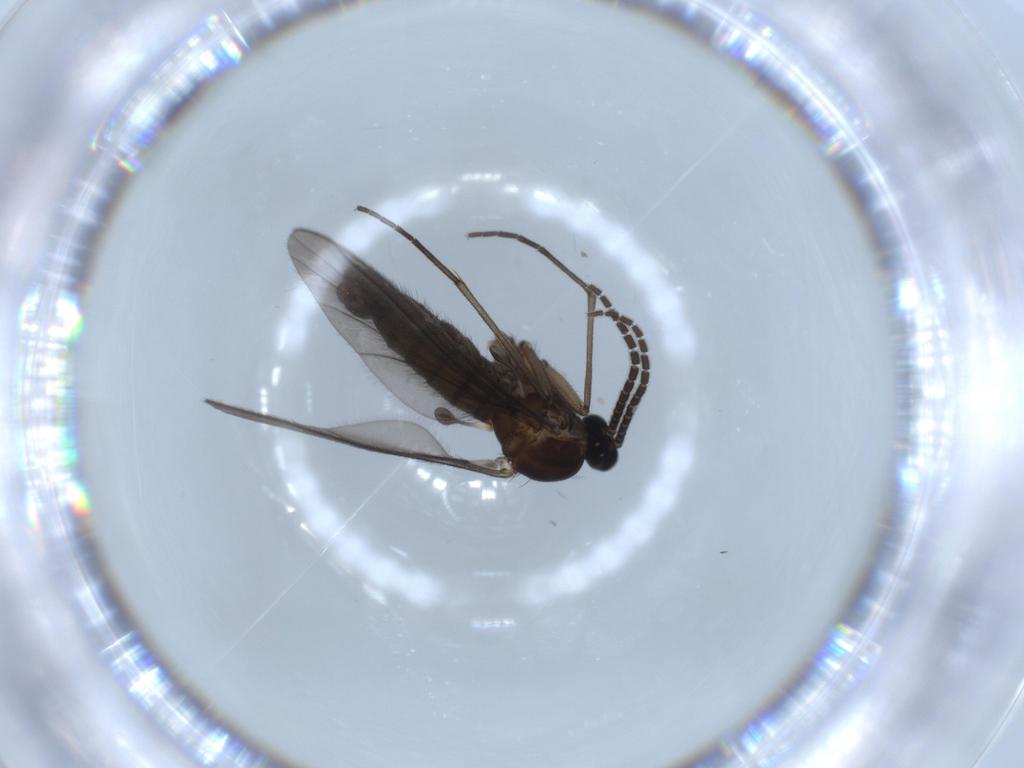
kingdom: Animalia
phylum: Arthropoda
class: Insecta
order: Diptera
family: Sciaridae
